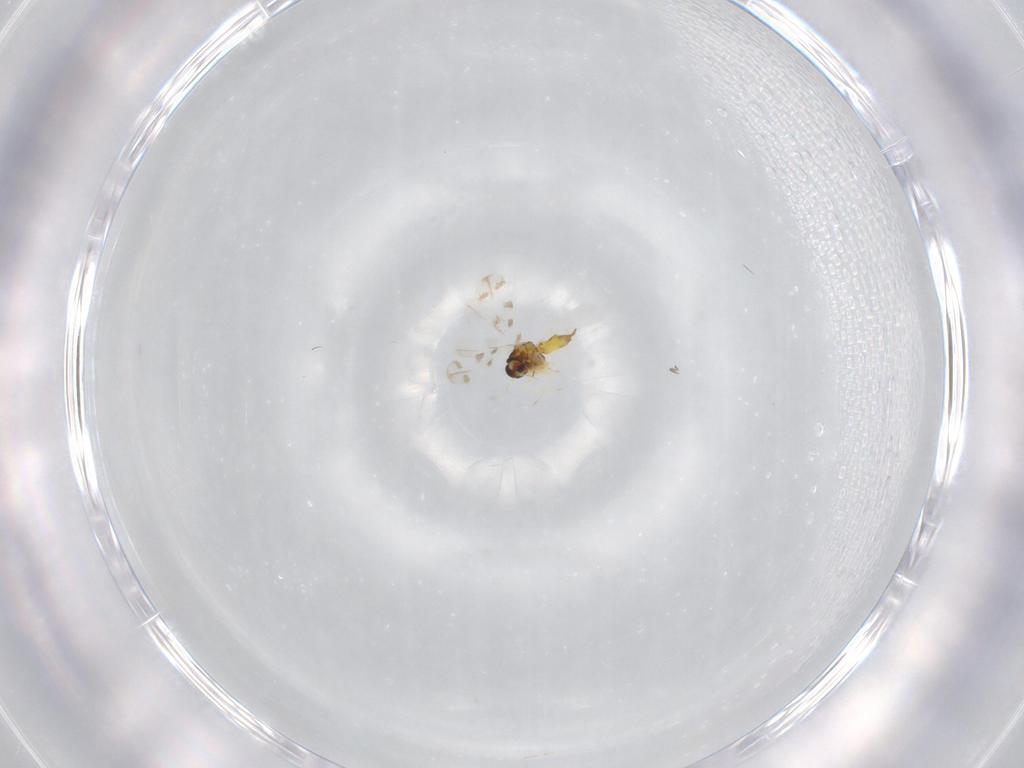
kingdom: Animalia
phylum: Arthropoda
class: Insecta
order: Hemiptera
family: Aleyrodidae
